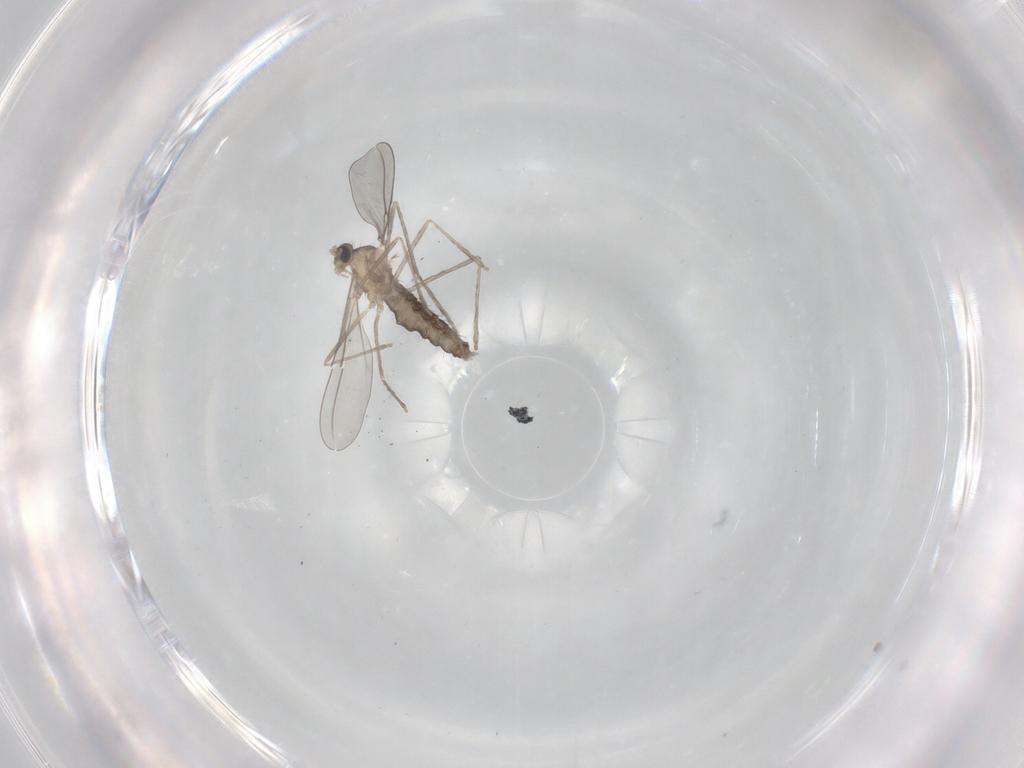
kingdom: Animalia
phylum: Arthropoda
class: Insecta
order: Diptera
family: Cecidomyiidae
